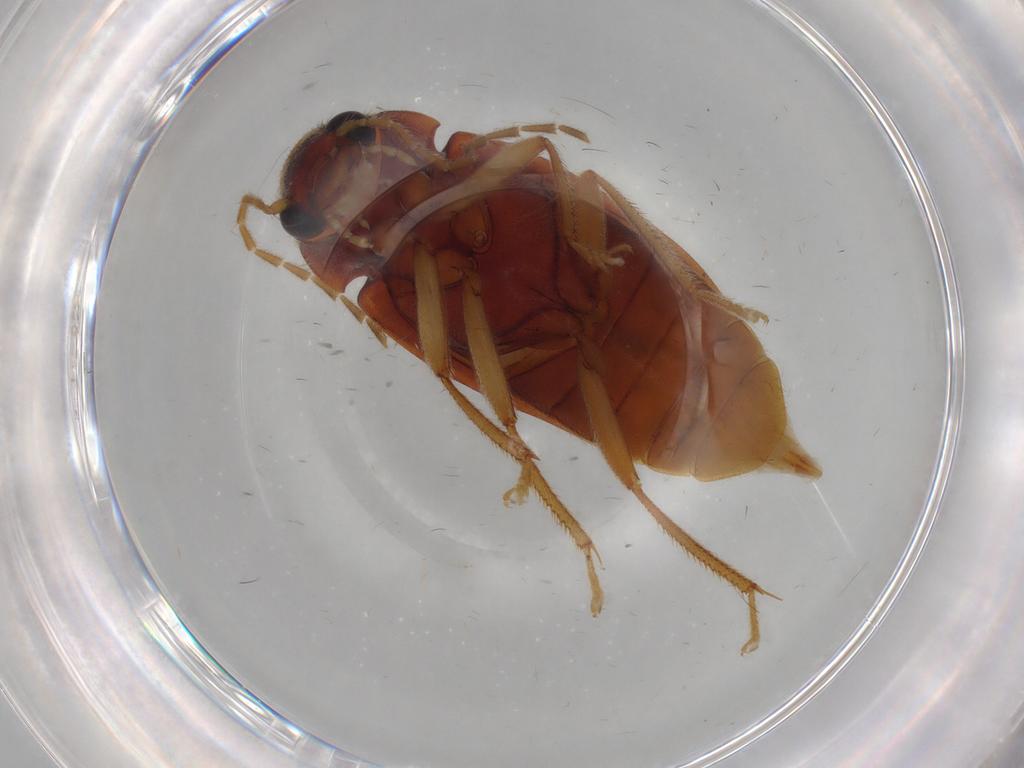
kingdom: Animalia
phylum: Arthropoda
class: Insecta
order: Coleoptera
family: Ptilodactylidae
